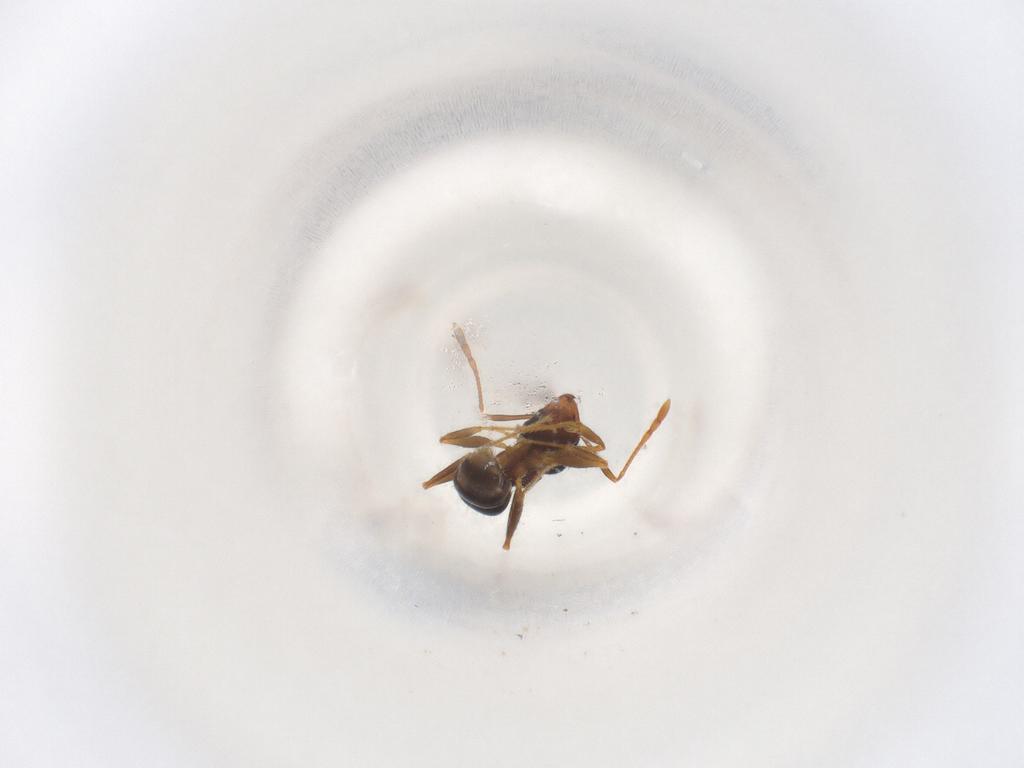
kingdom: Animalia
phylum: Arthropoda
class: Insecta
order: Hymenoptera
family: Formicidae
